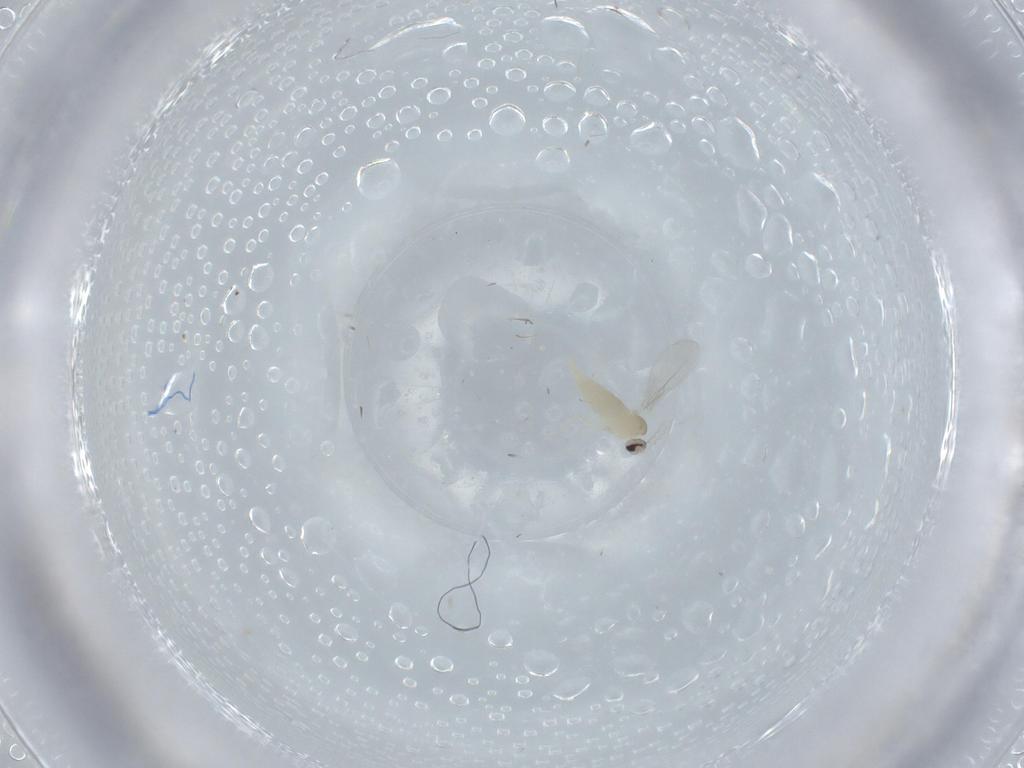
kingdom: Animalia
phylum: Arthropoda
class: Insecta
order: Diptera
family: Cecidomyiidae
